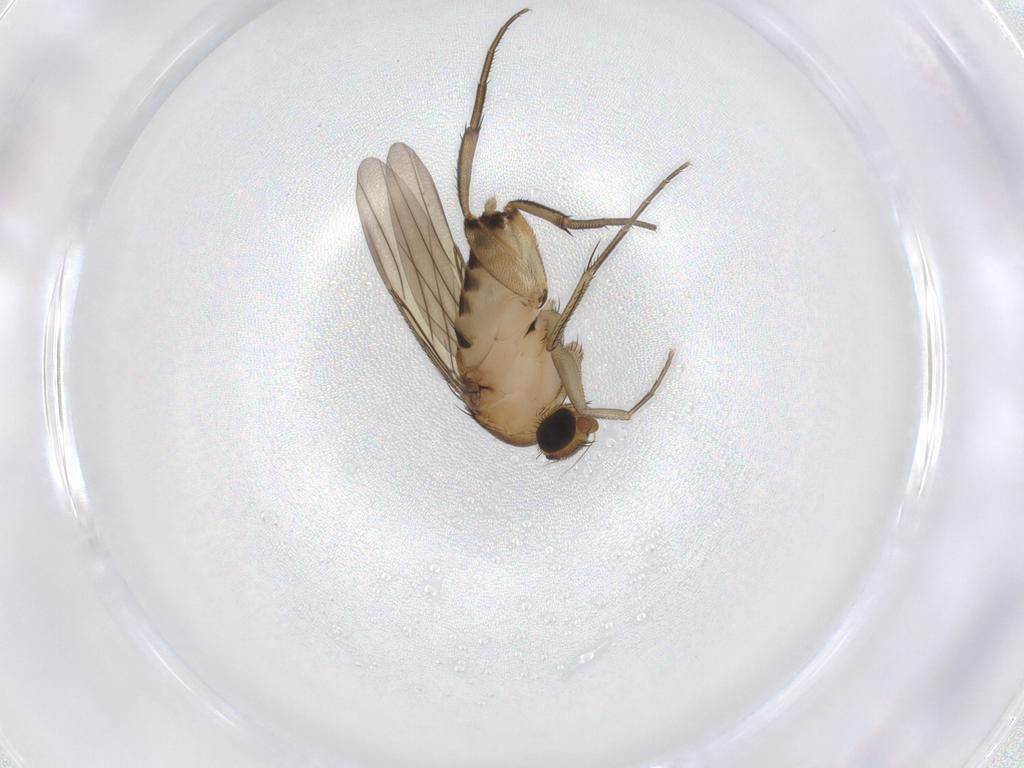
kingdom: Animalia
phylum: Arthropoda
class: Insecta
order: Diptera
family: Phoridae
